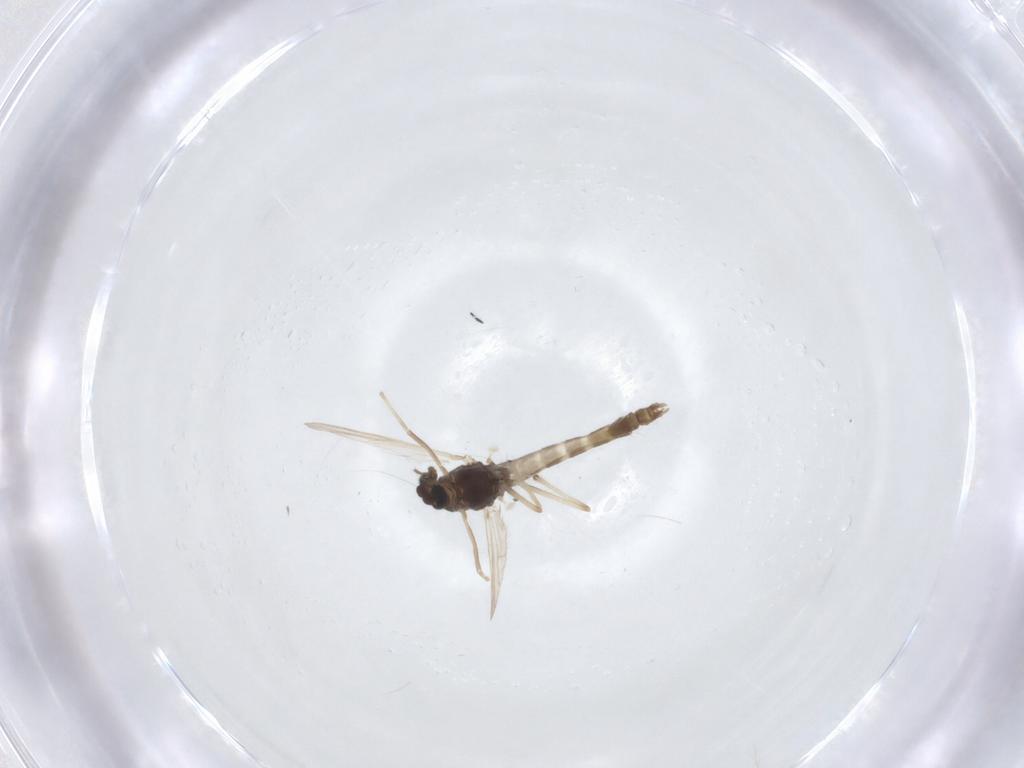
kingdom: Animalia
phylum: Arthropoda
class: Insecta
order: Diptera
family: Chironomidae
